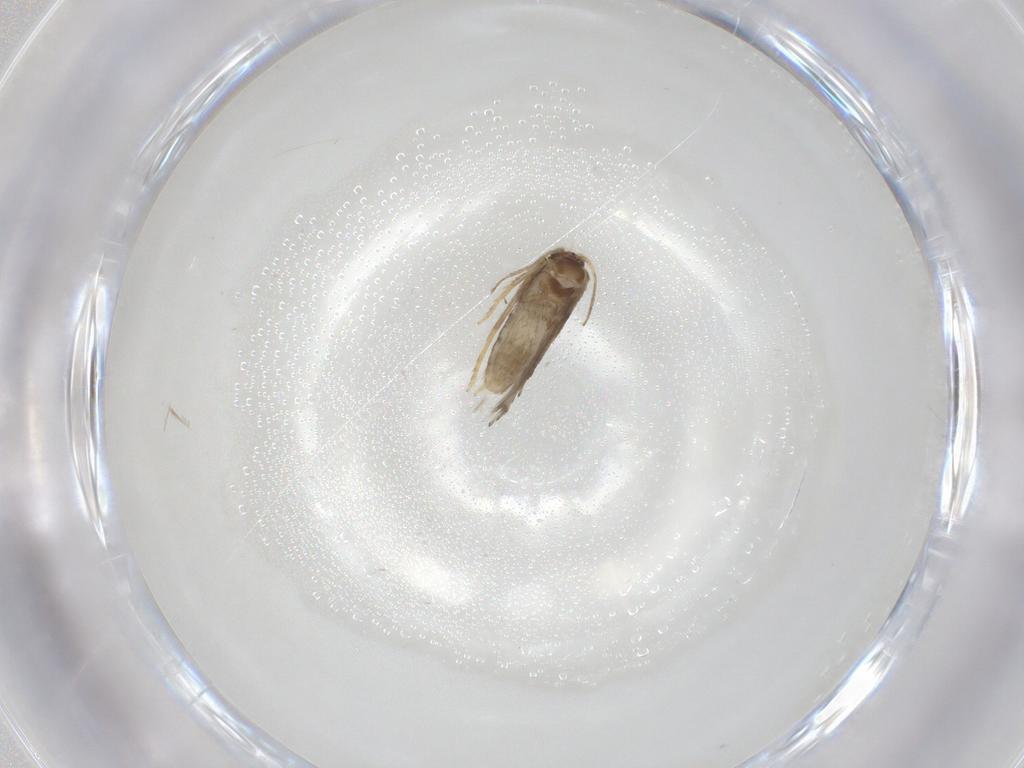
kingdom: Animalia
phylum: Arthropoda
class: Insecta
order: Lepidoptera
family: Nepticulidae
